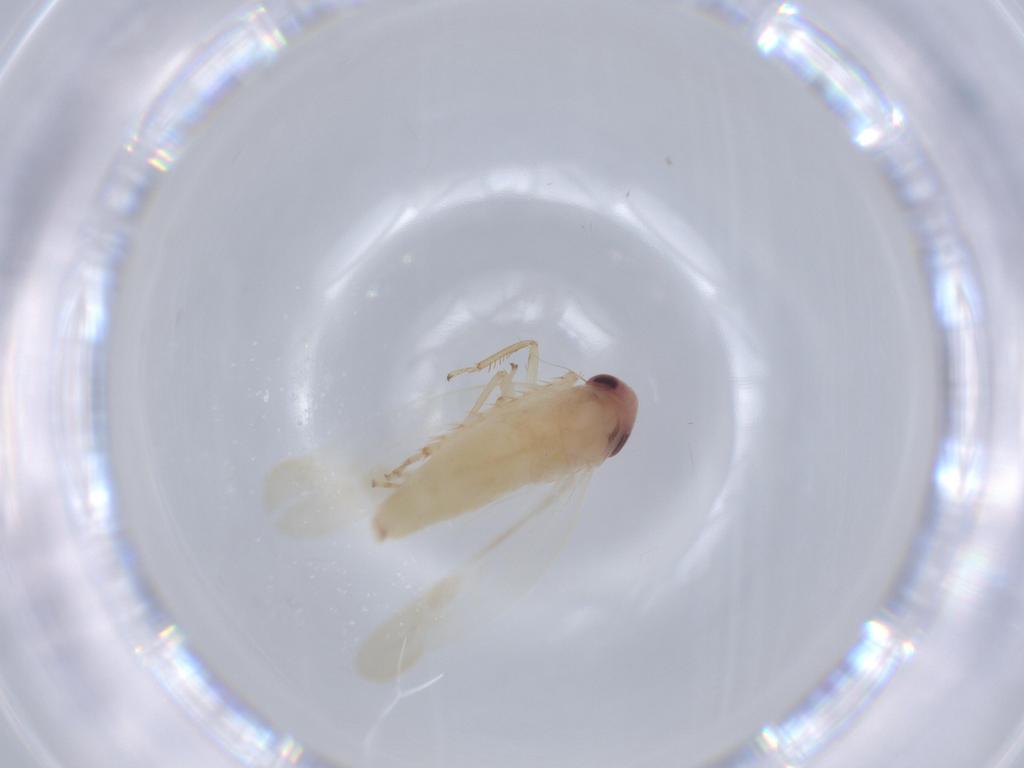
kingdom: Animalia
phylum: Arthropoda
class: Insecta
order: Hemiptera
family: Cicadellidae
